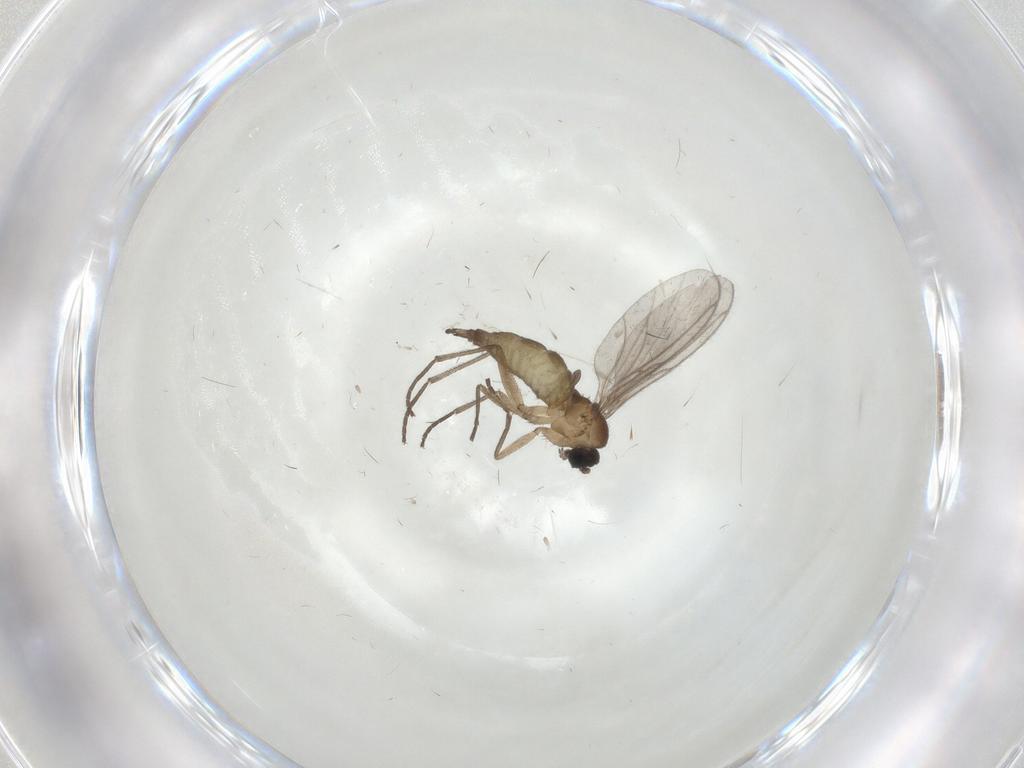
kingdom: Animalia
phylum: Arthropoda
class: Insecta
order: Diptera
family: Sciaridae
